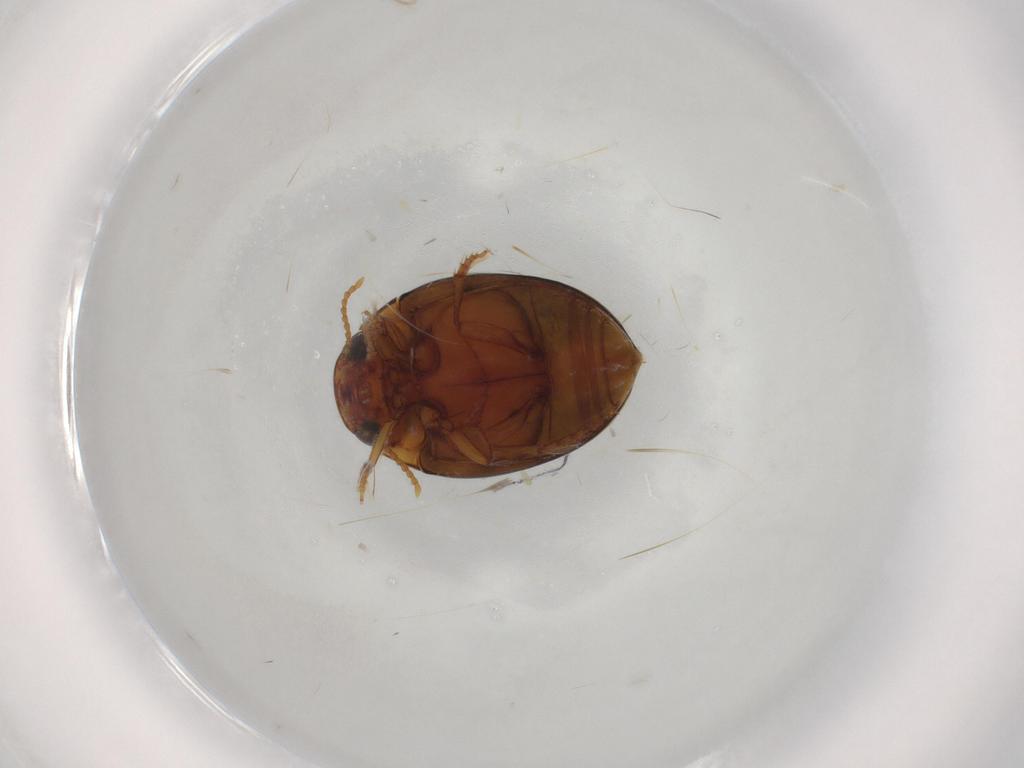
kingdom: Animalia
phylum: Arthropoda
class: Insecta
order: Coleoptera
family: Dytiscidae
